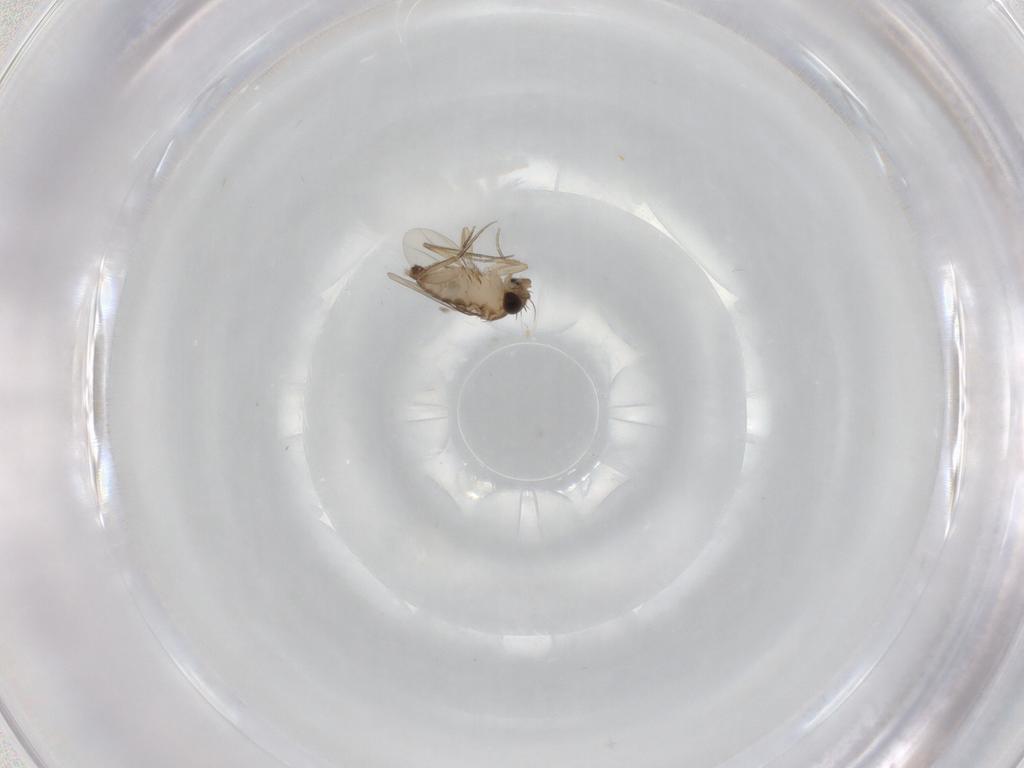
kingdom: Animalia
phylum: Arthropoda
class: Insecta
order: Diptera
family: Phoridae
